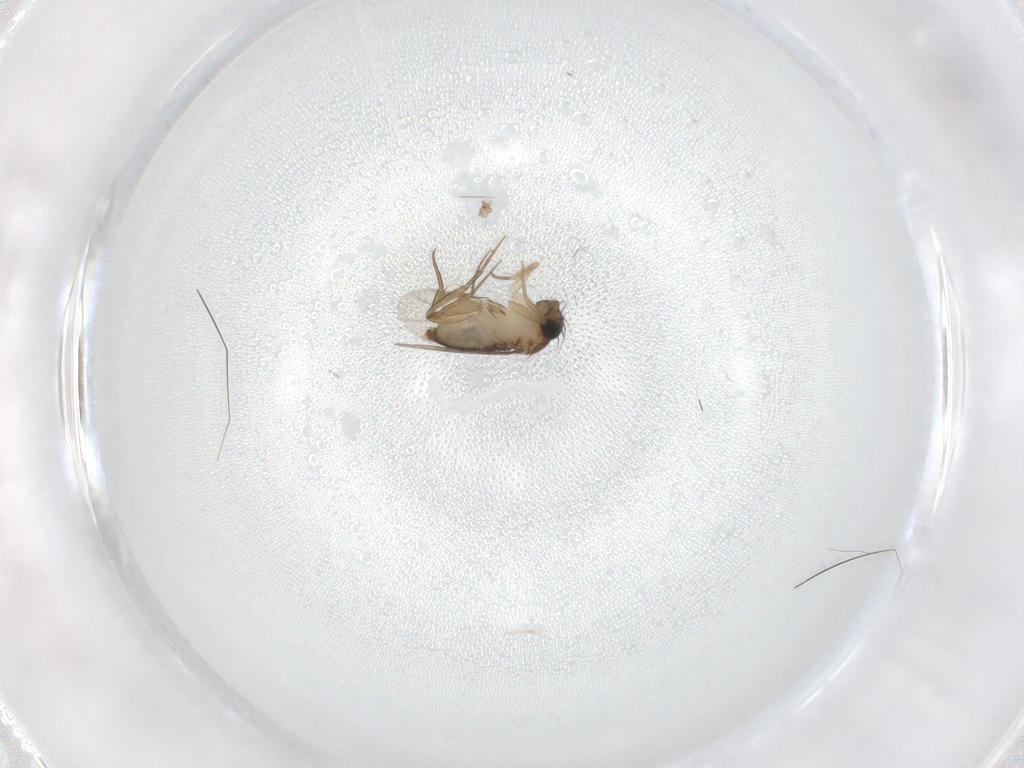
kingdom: Animalia
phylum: Arthropoda
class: Insecta
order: Diptera
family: Phoridae
